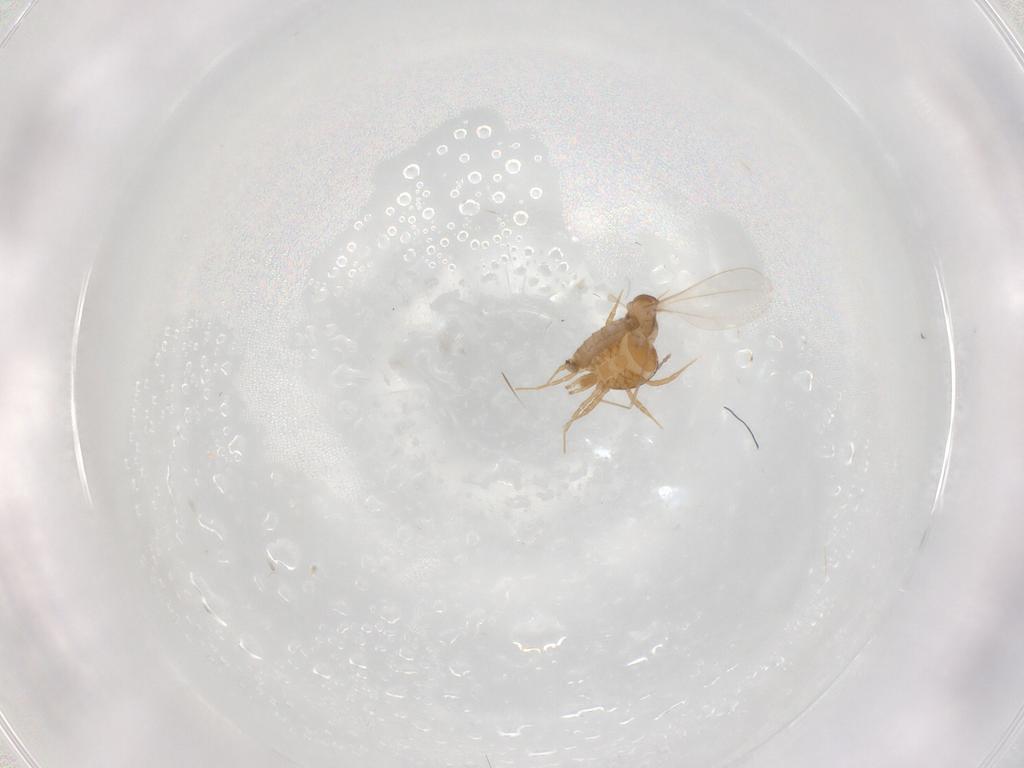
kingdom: Animalia
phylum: Arthropoda
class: Insecta
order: Diptera
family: Cecidomyiidae
